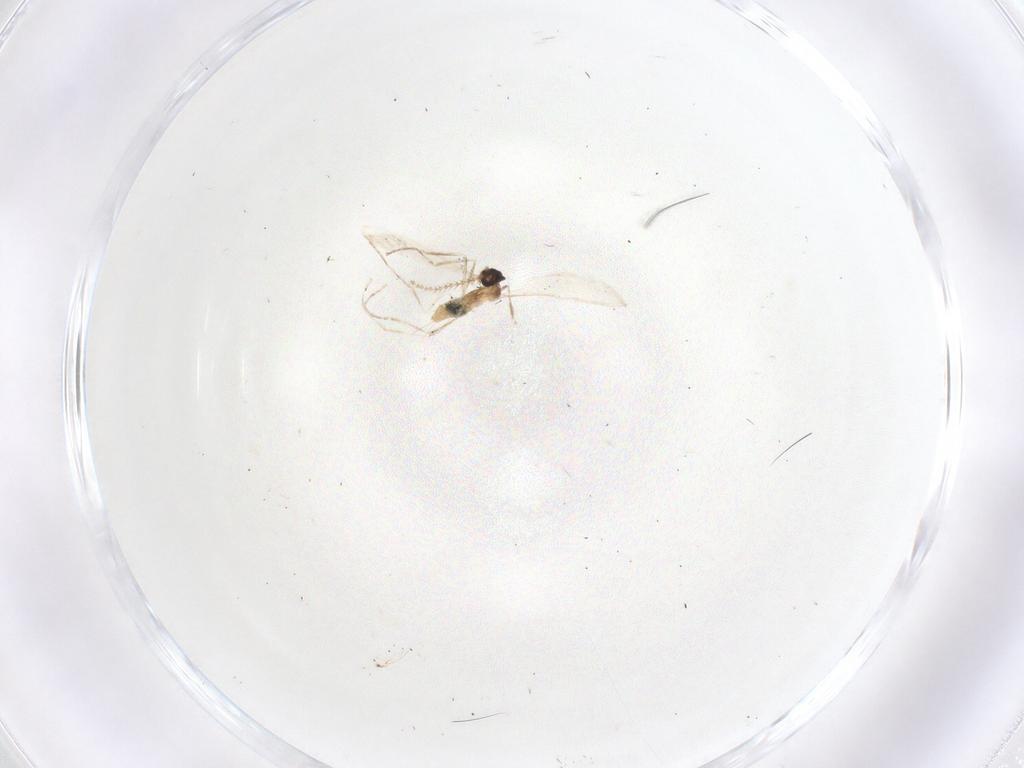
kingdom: Animalia
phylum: Arthropoda
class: Insecta
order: Diptera
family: Cecidomyiidae
